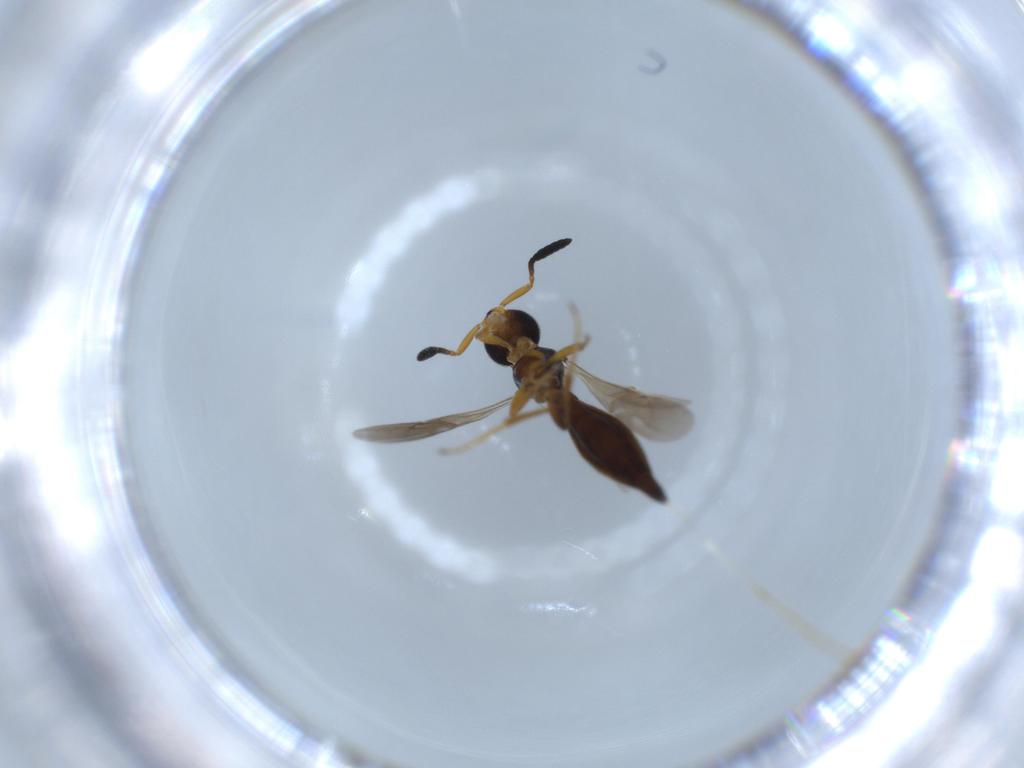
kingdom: Animalia
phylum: Arthropoda
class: Insecta
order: Hymenoptera
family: Scelionidae
